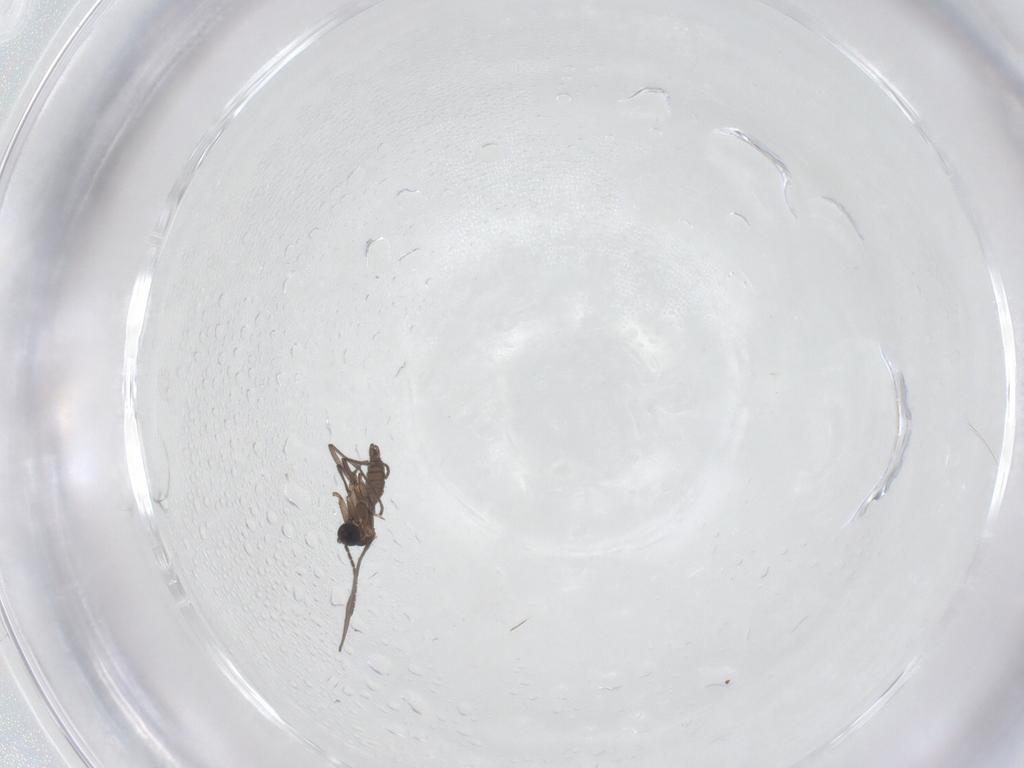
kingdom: Animalia
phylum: Arthropoda
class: Insecta
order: Diptera
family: Sciaridae
